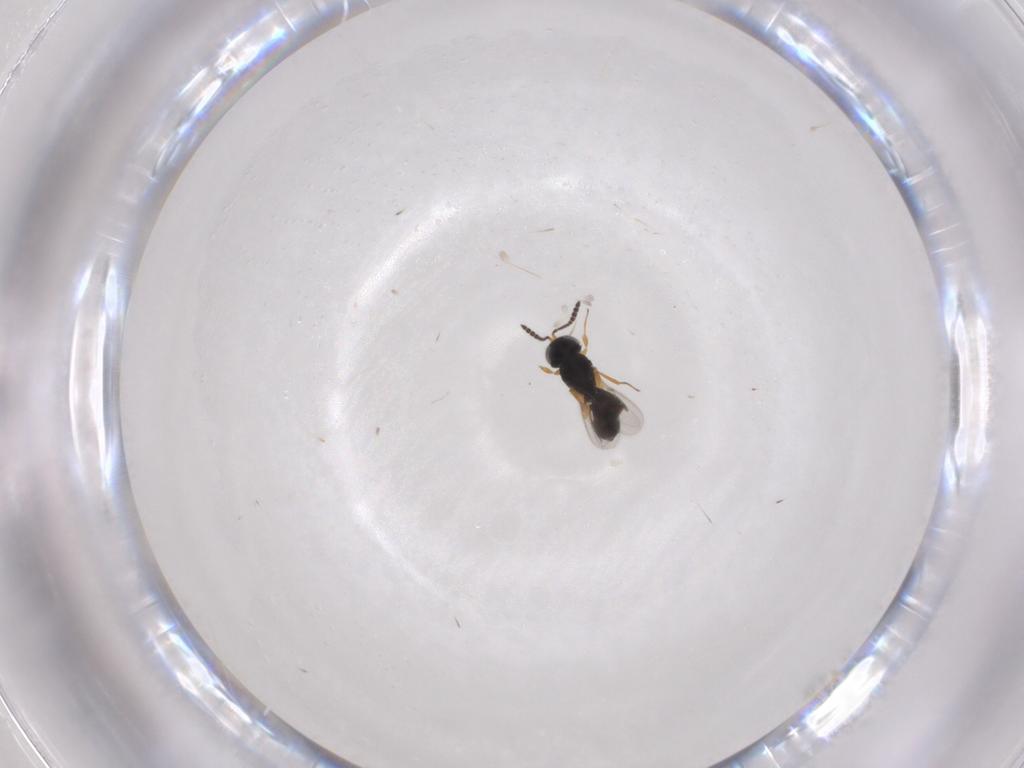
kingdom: Animalia
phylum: Arthropoda
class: Insecta
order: Hymenoptera
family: Scelionidae
